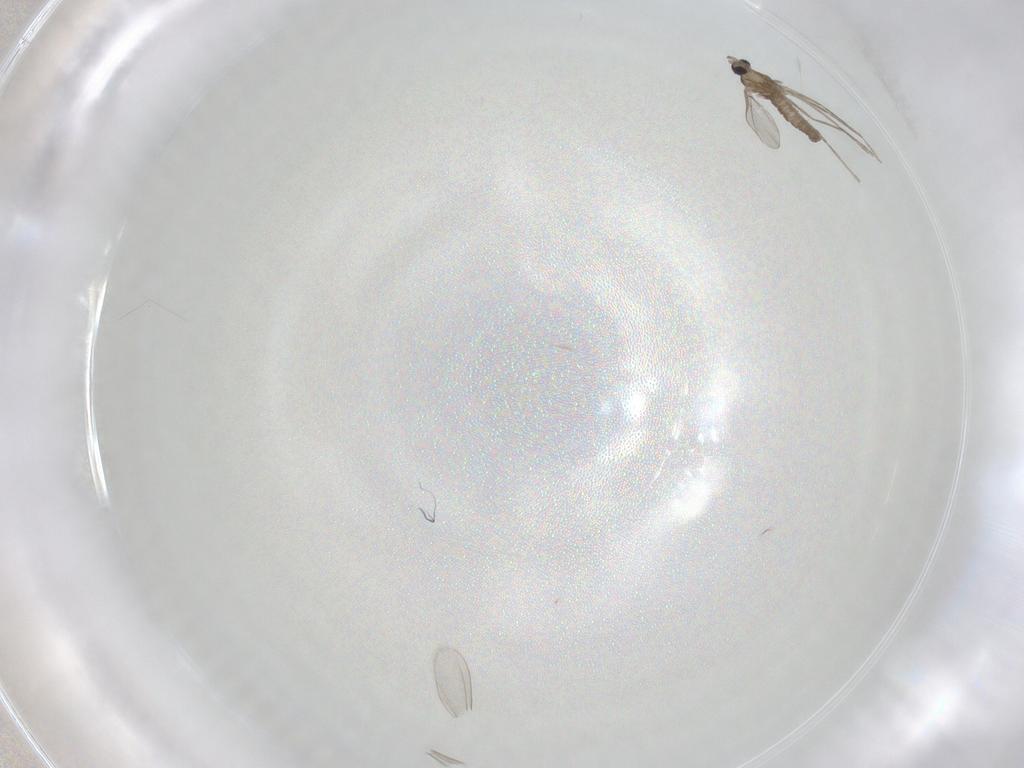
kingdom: Animalia
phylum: Arthropoda
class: Insecta
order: Diptera
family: Cecidomyiidae
